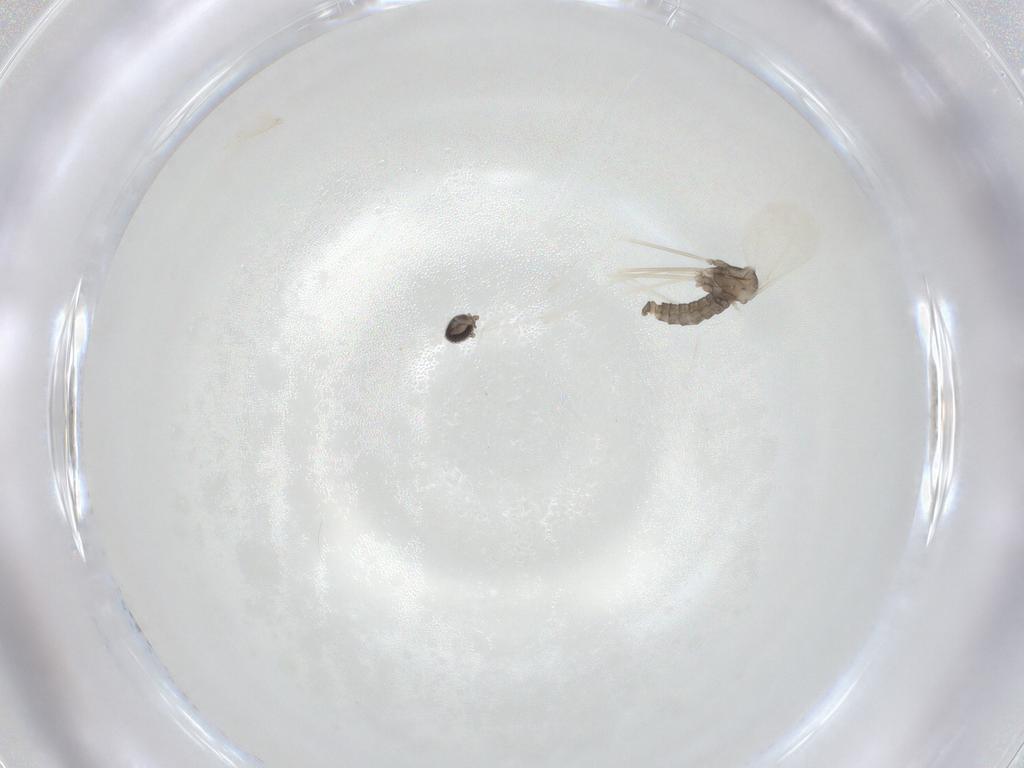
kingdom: Animalia
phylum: Arthropoda
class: Insecta
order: Diptera
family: Cecidomyiidae
